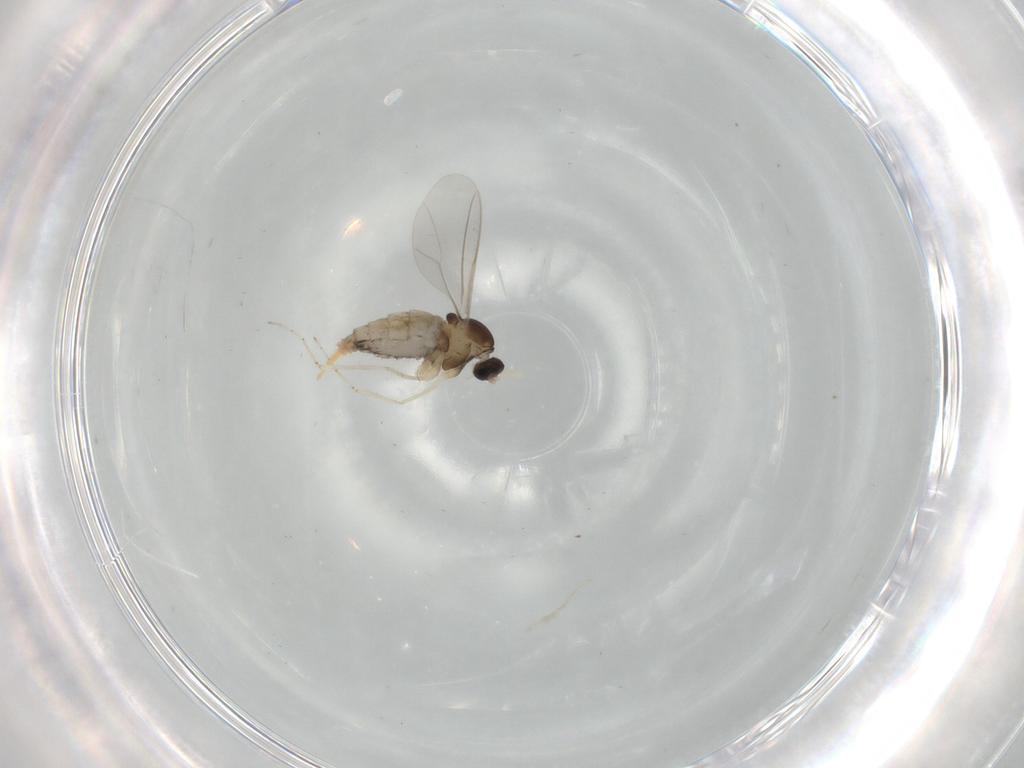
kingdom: Animalia
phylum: Arthropoda
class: Insecta
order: Diptera
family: Cecidomyiidae
